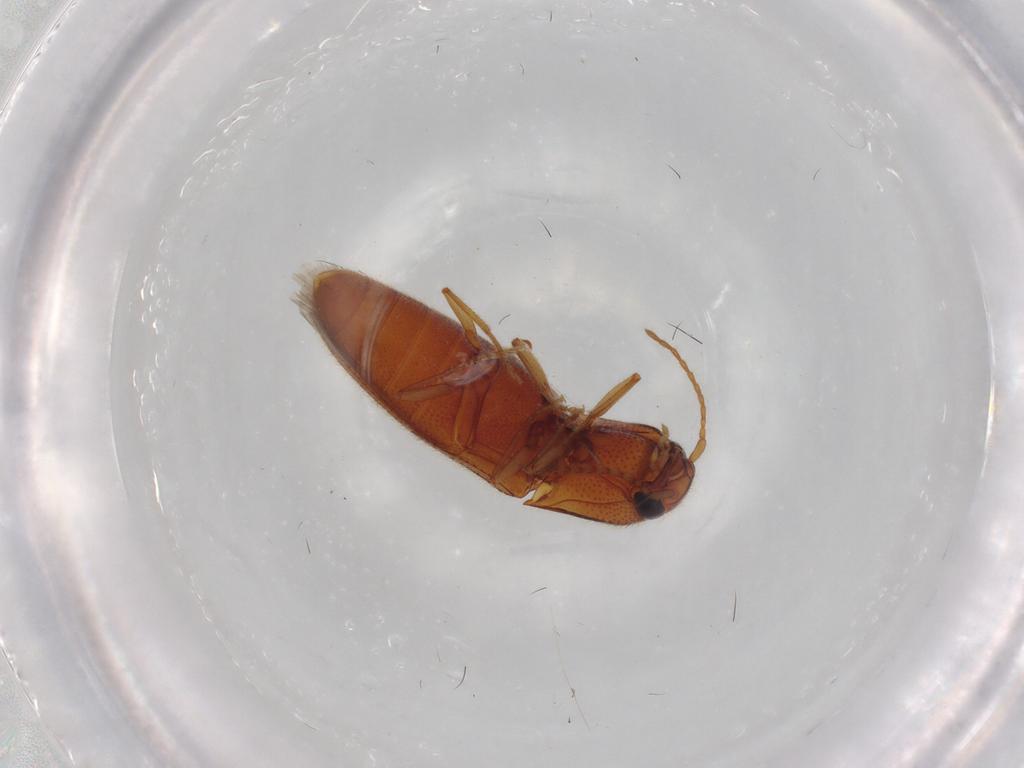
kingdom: Animalia
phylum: Arthropoda
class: Insecta
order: Coleoptera
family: Elateridae
